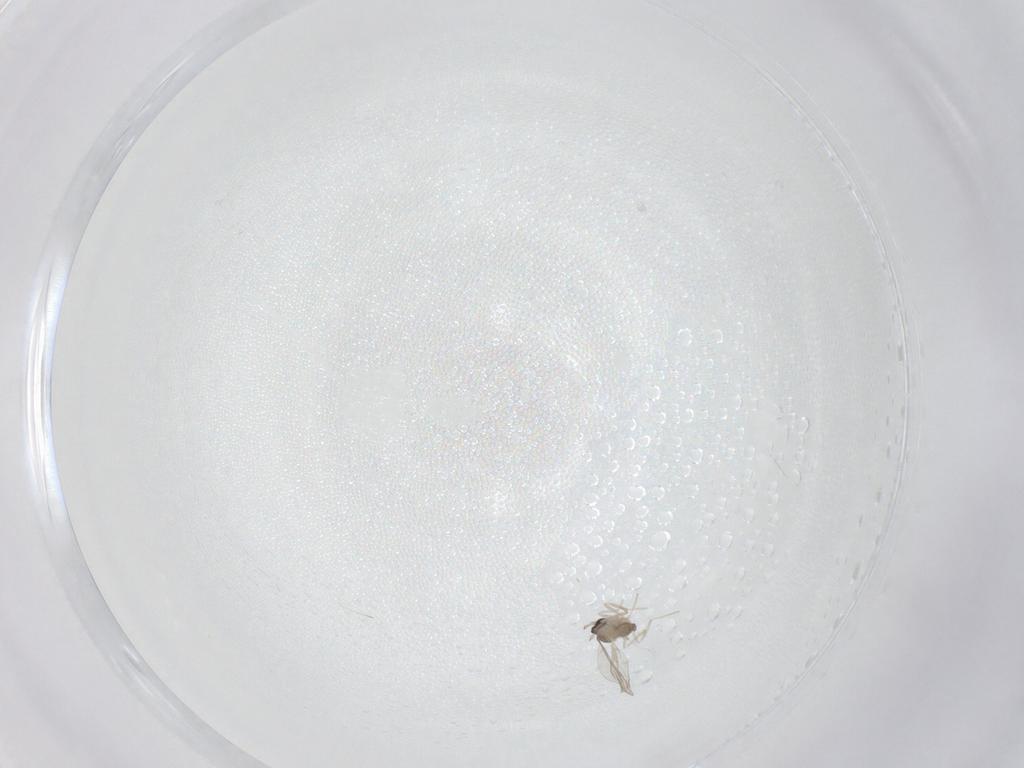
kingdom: Animalia
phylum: Arthropoda
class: Insecta
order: Diptera
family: Cecidomyiidae
